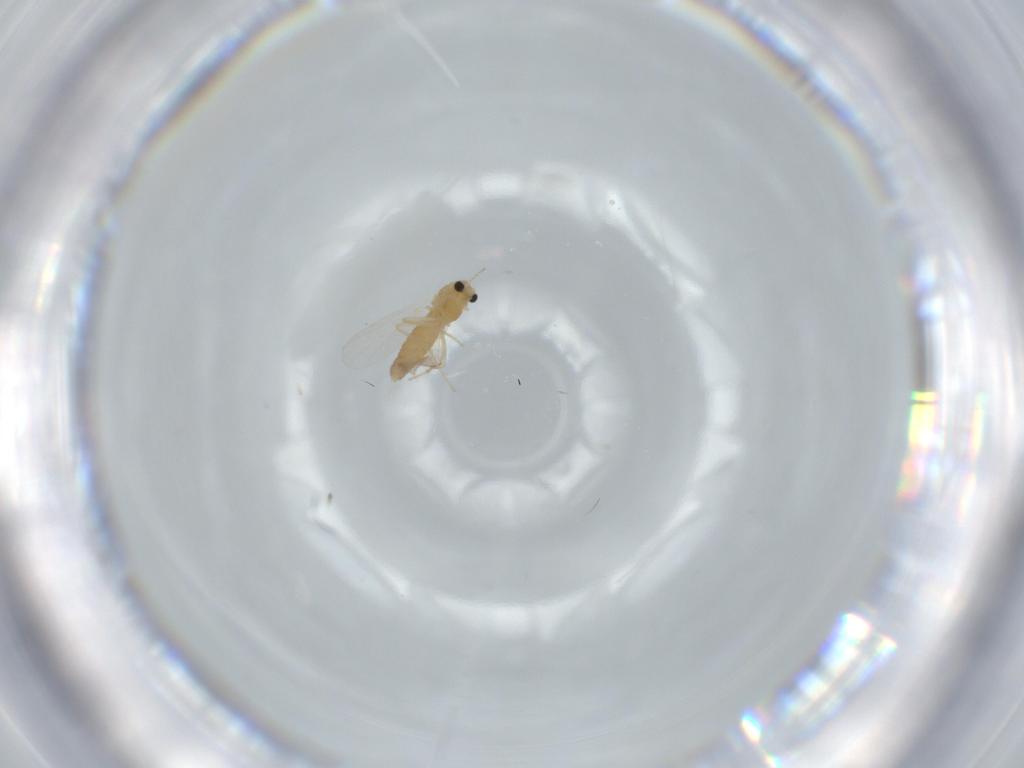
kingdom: Animalia
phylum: Arthropoda
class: Insecta
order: Diptera
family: Chironomidae
